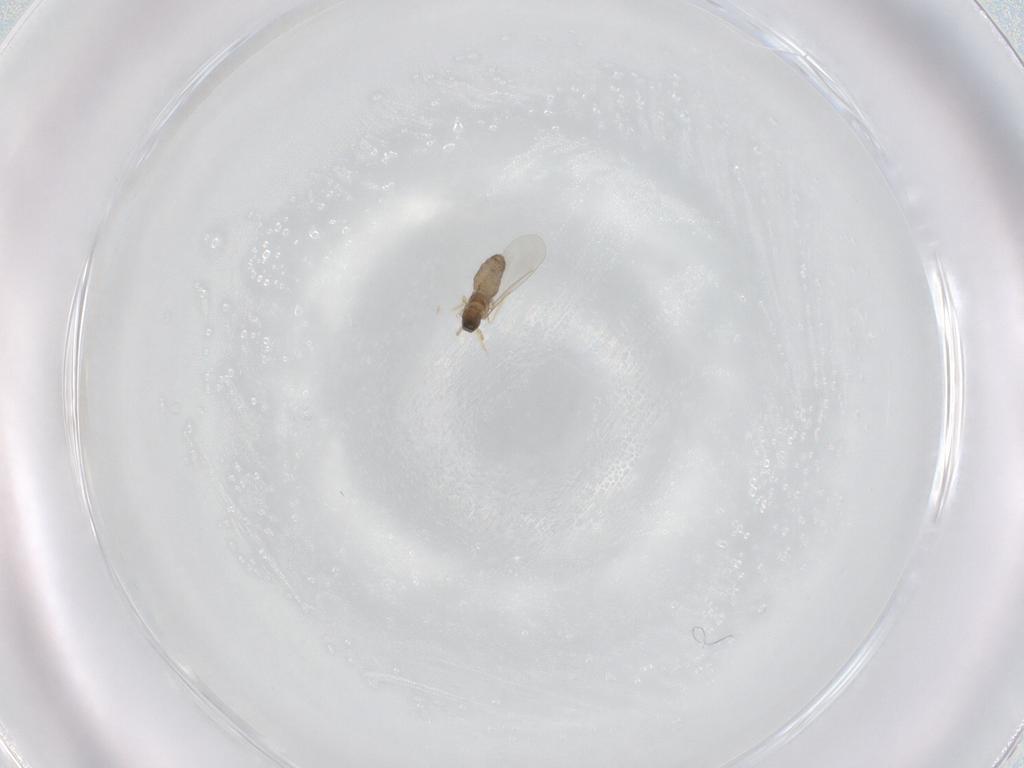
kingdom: Animalia
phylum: Arthropoda
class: Insecta
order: Diptera
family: Cecidomyiidae
